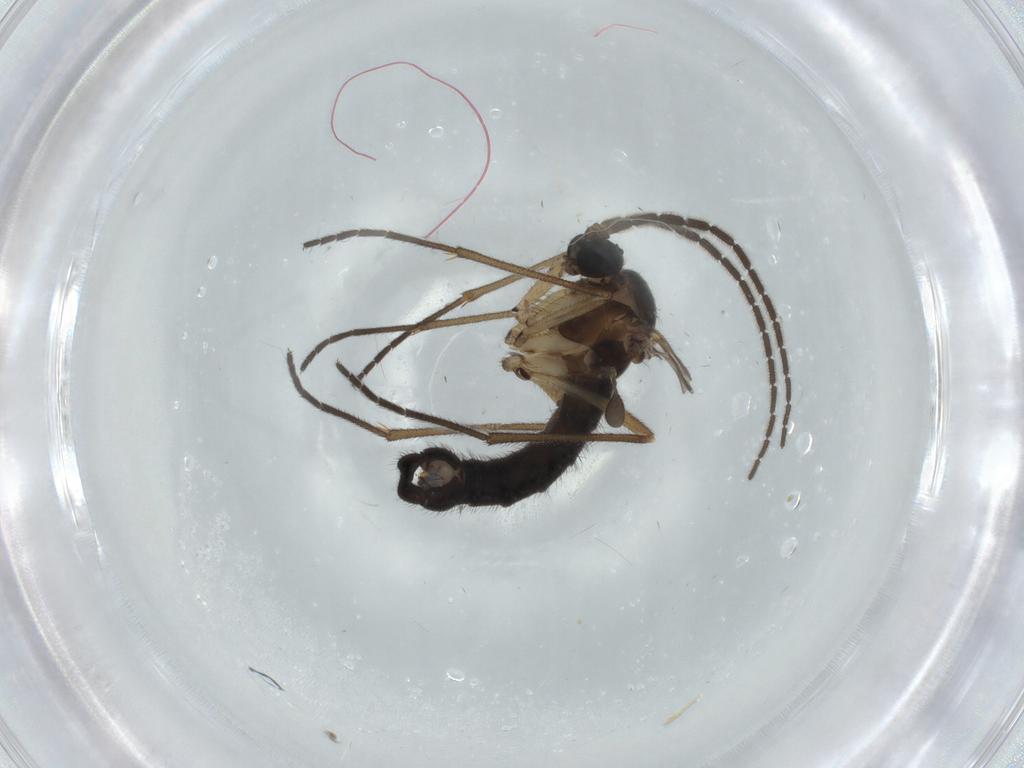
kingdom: Animalia
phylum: Arthropoda
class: Insecta
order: Diptera
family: Sciaridae
